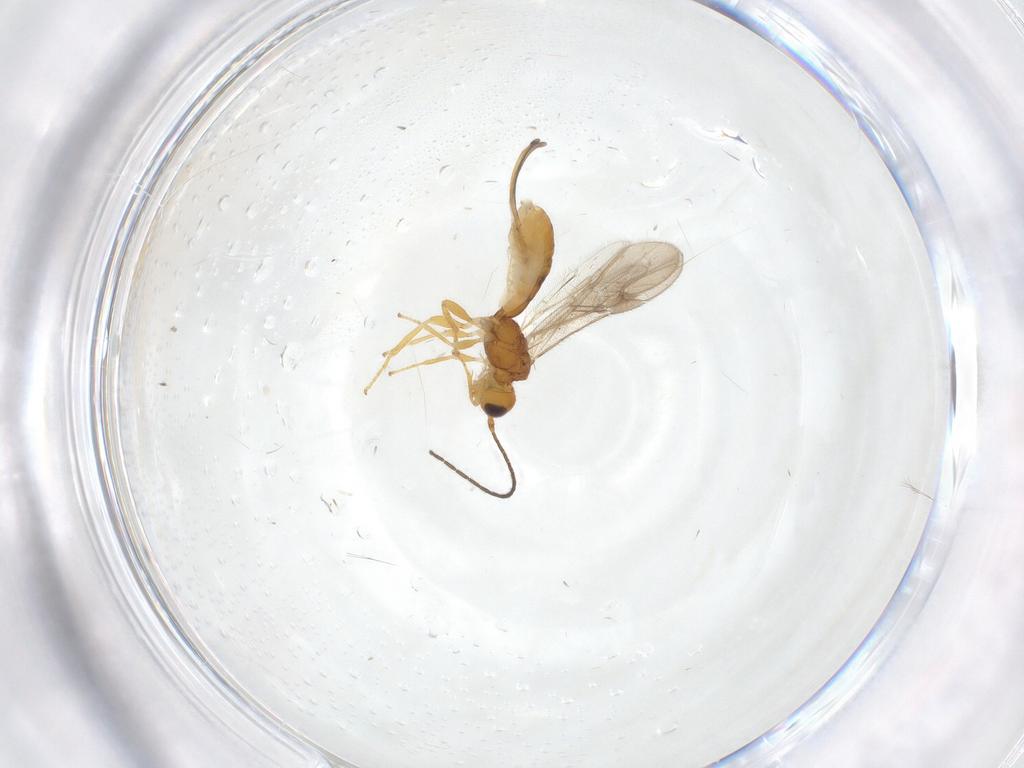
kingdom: Animalia
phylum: Arthropoda
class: Insecta
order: Hymenoptera
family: Braconidae
